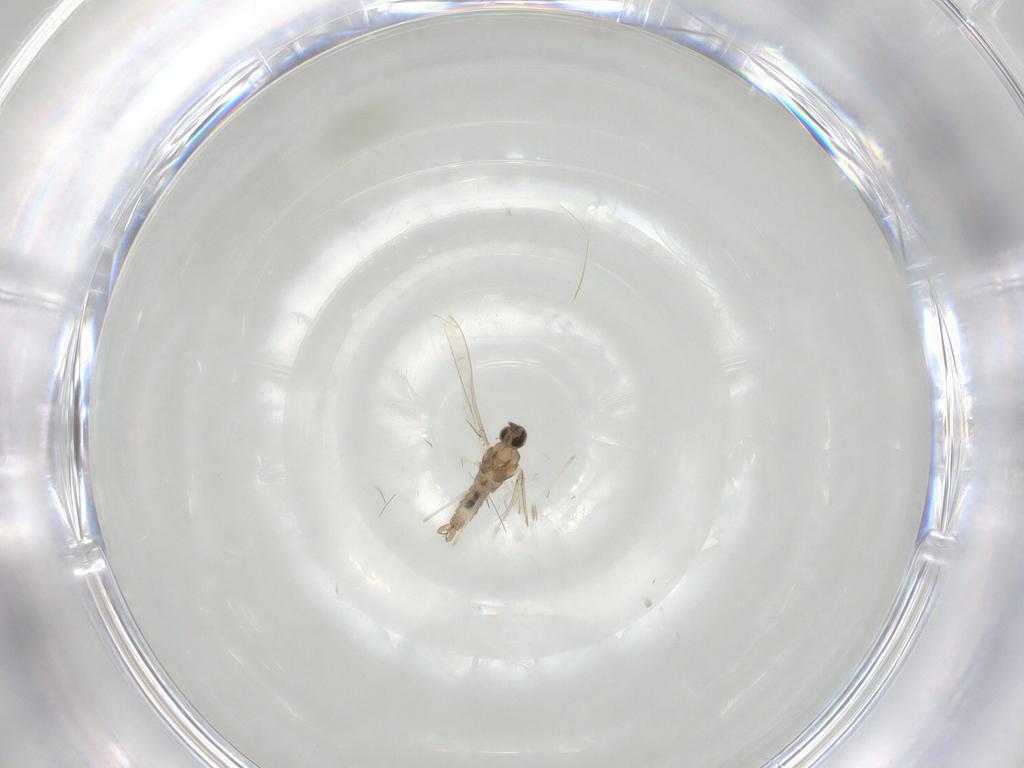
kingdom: Animalia
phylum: Arthropoda
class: Insecta
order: Diptera
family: Cecidomyiidae
